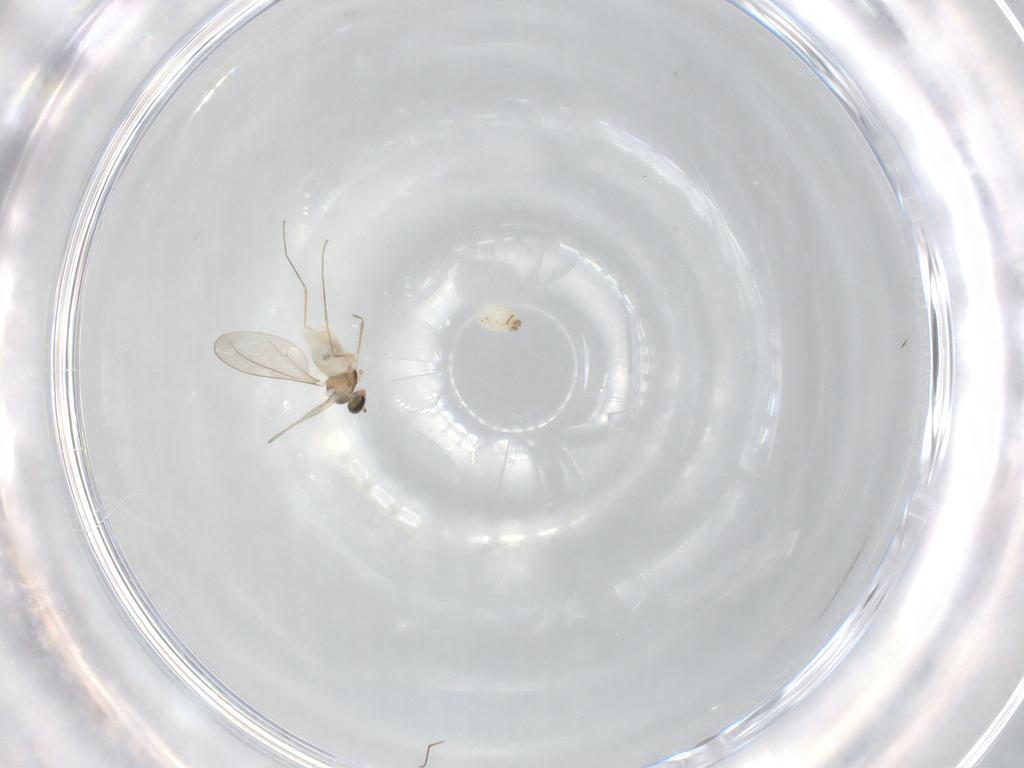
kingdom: Animalia
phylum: Arthropoda
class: Insecta
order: Diptera
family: Cecidomyiidae
